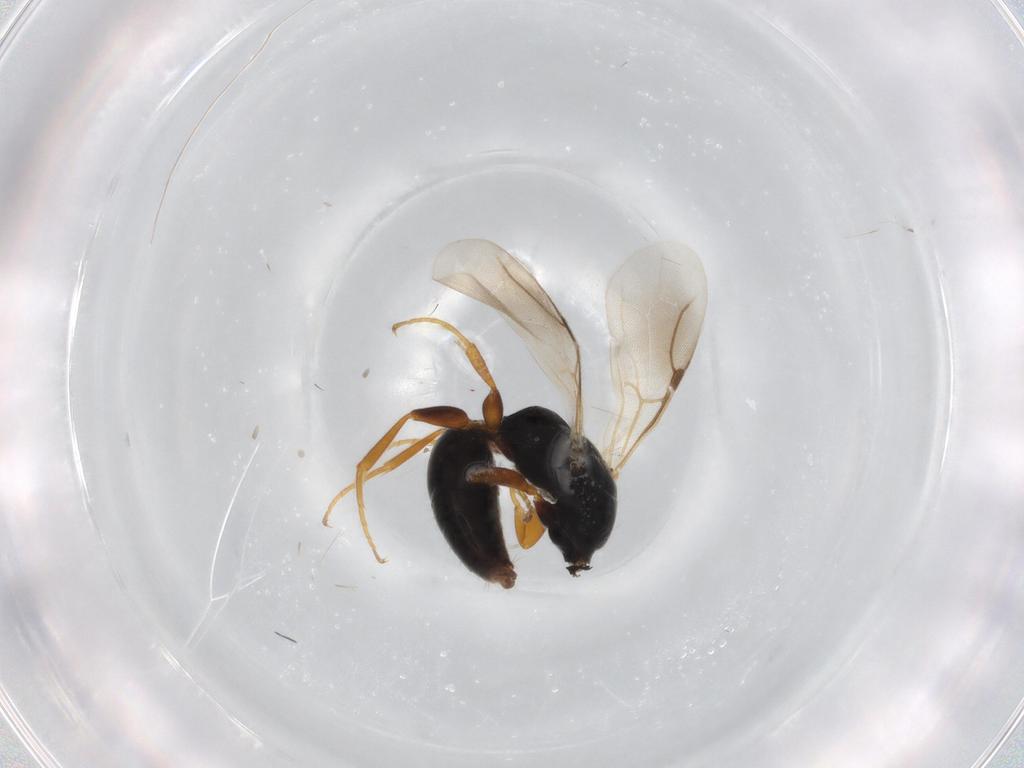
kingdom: Animalia
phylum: Arthropoda
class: Insecta
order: Hymenoptera
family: Bethylidae
